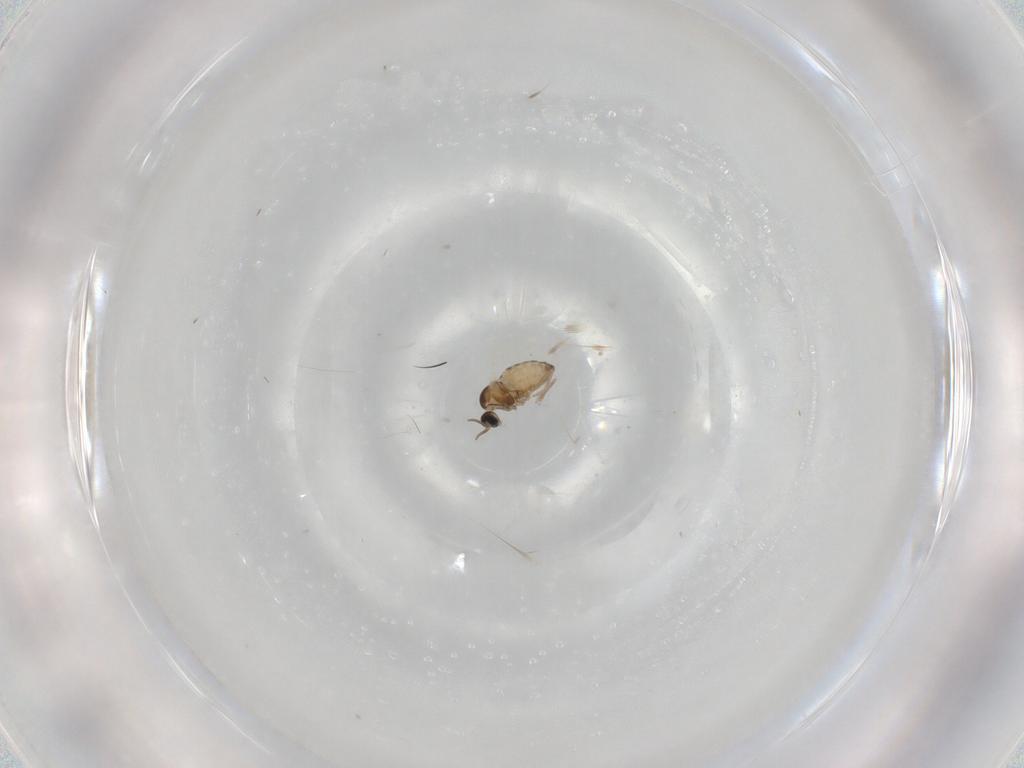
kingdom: Animalia
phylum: Arthropoda
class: Insecta
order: Diptera
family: Cecidomyiidae
